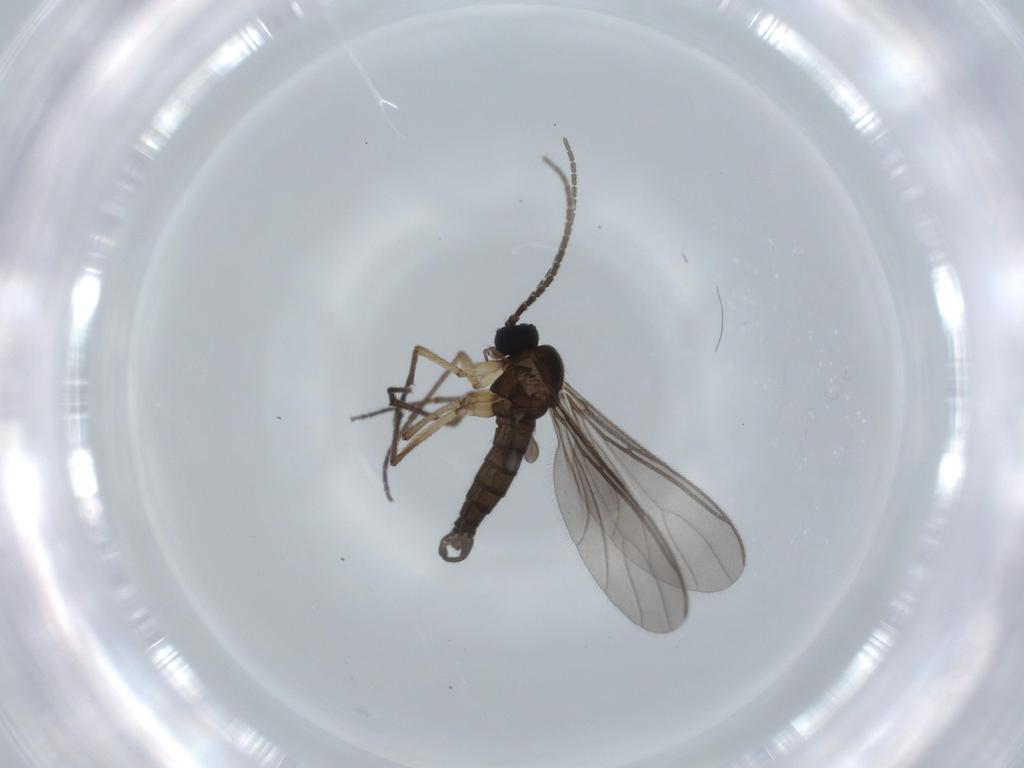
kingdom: Animalia
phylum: Arthropoda
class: Insecta
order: Diptera
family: Sciaridae
